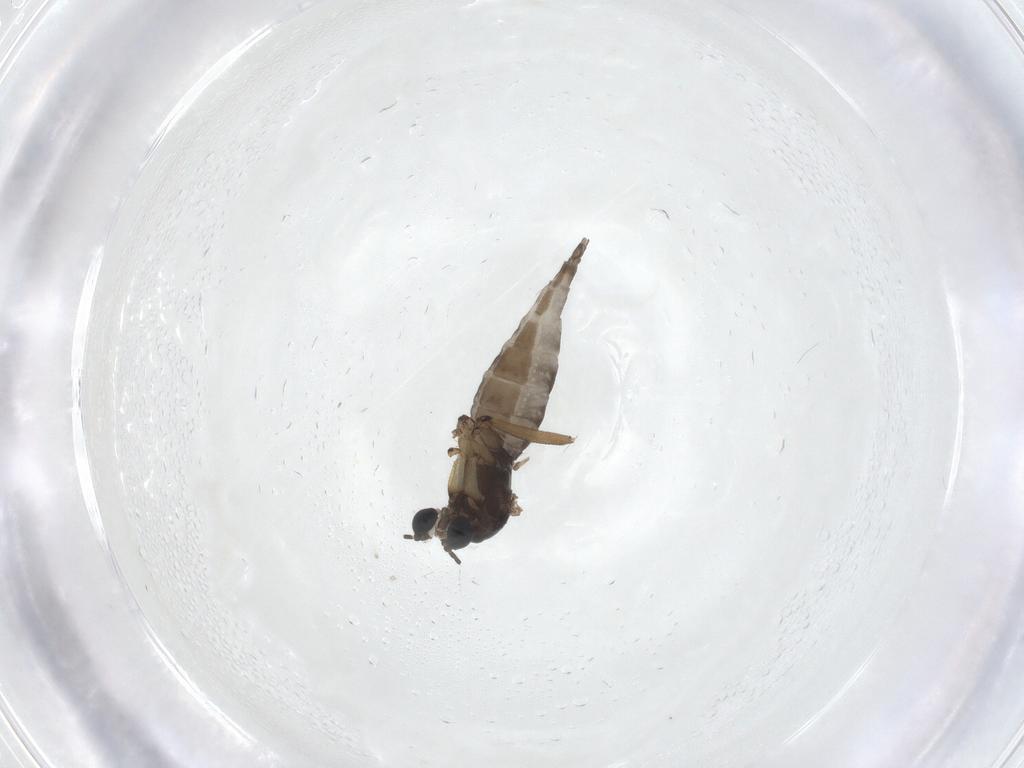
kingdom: Animalia
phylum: Arthropoda
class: Insecta
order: Diptera
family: Sciaridae
